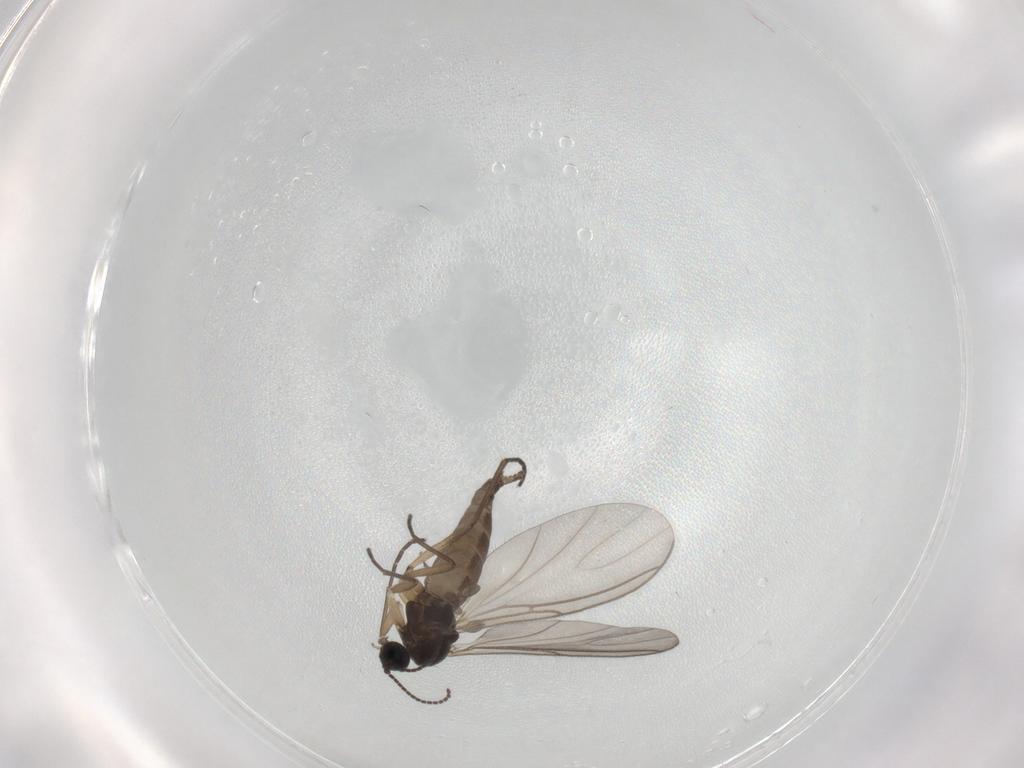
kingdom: Animalia
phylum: Arthropoda
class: Insecta
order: Diptera
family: Sciaridae
